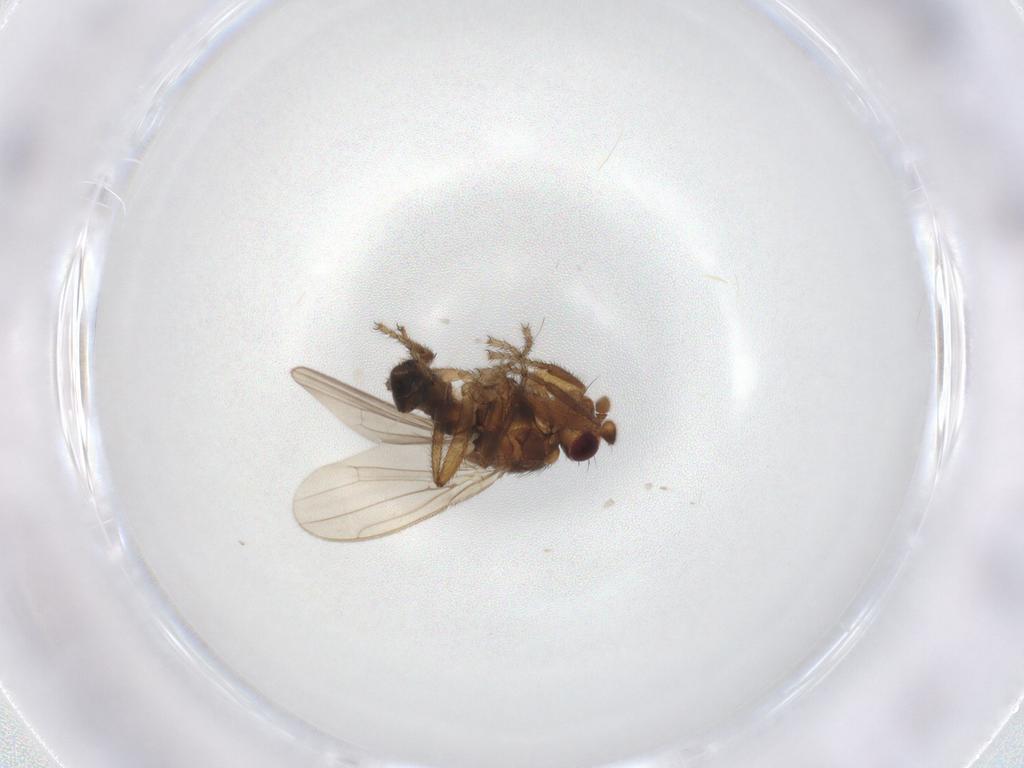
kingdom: Animalia
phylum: Arthropoda
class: Insecta
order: Diptera
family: Sphaeroceridae
